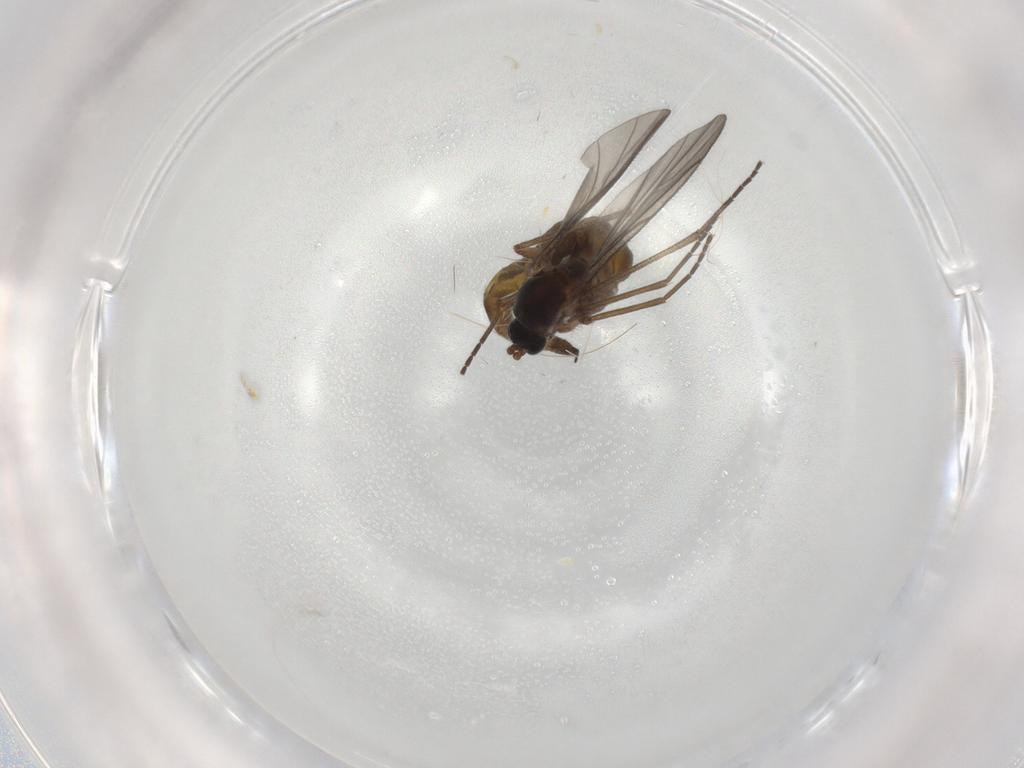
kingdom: Animalia
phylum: Arthropoda
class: Insecta
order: Diptera
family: Sciaridae
